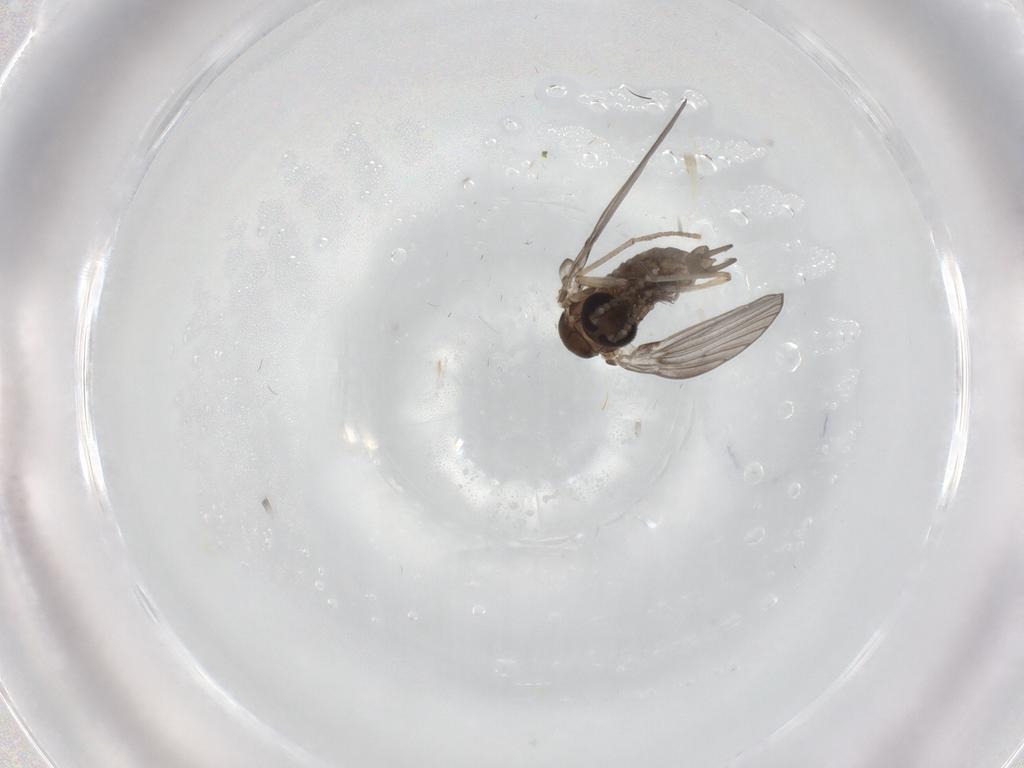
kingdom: Animalia
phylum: Arthropoda
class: Insecta
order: Diptera
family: Psychodidae
